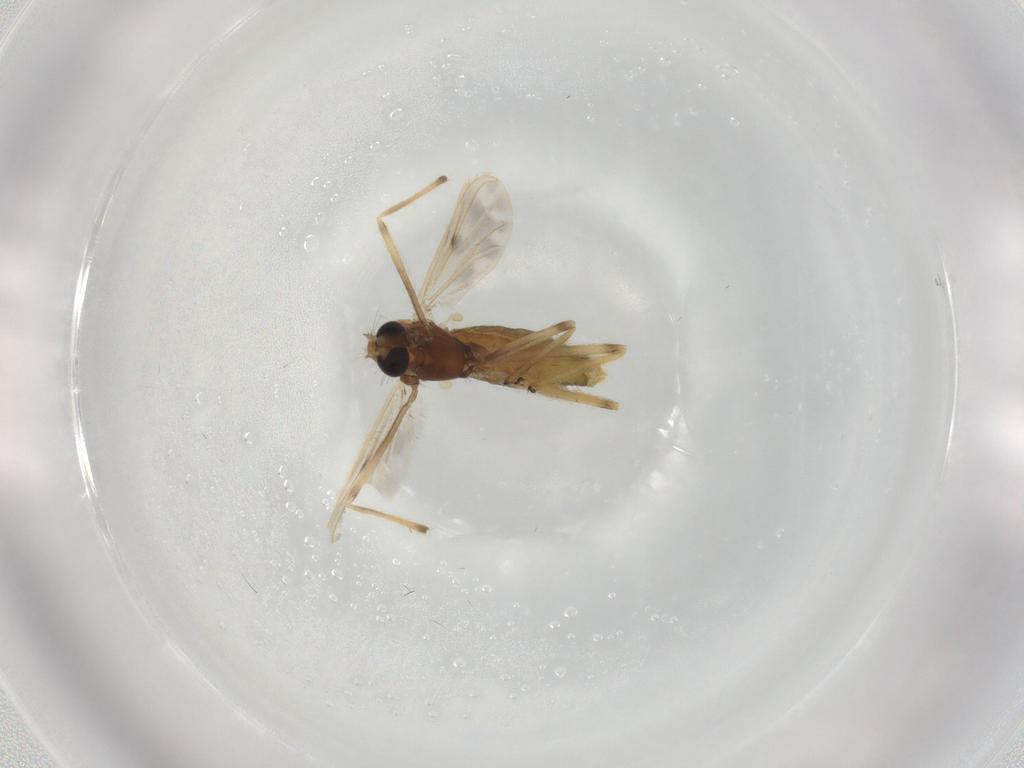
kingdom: Animalia
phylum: Arthropoda
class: Insecta
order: Diptera
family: Chironomidae
